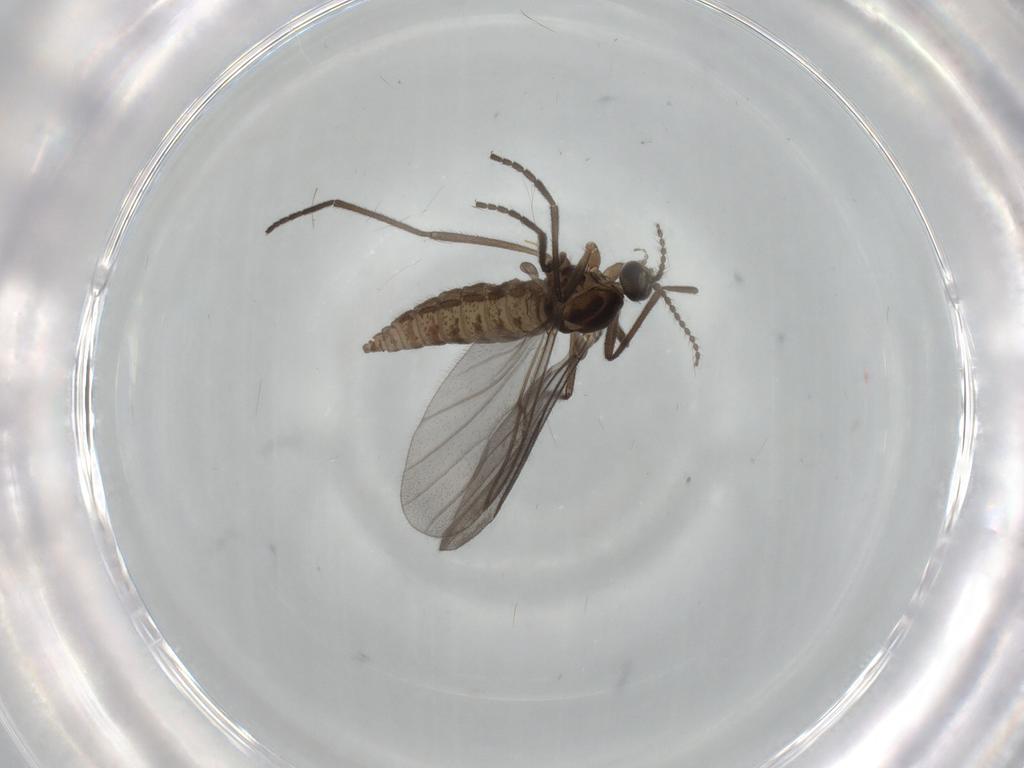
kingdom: Animalia
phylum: Arthropoda
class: Insecta
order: Diptera
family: Cecidomyiidae
